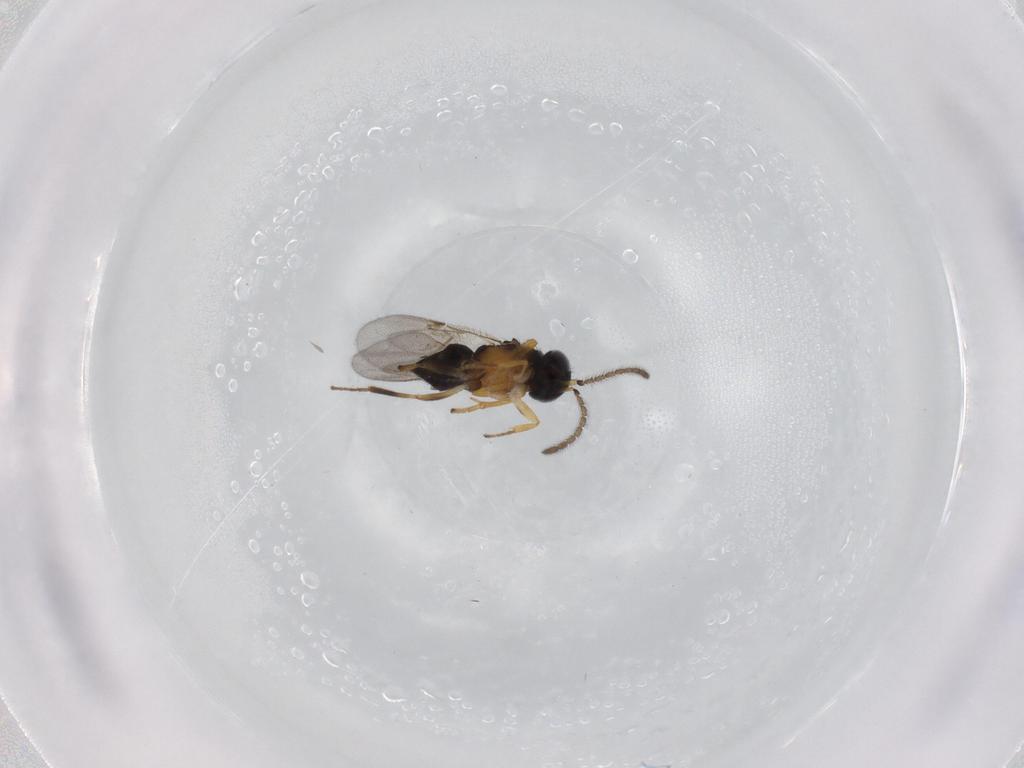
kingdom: Animalia
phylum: Arthropoda
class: Insecta
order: Hymenoptera
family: Encyrtidae
